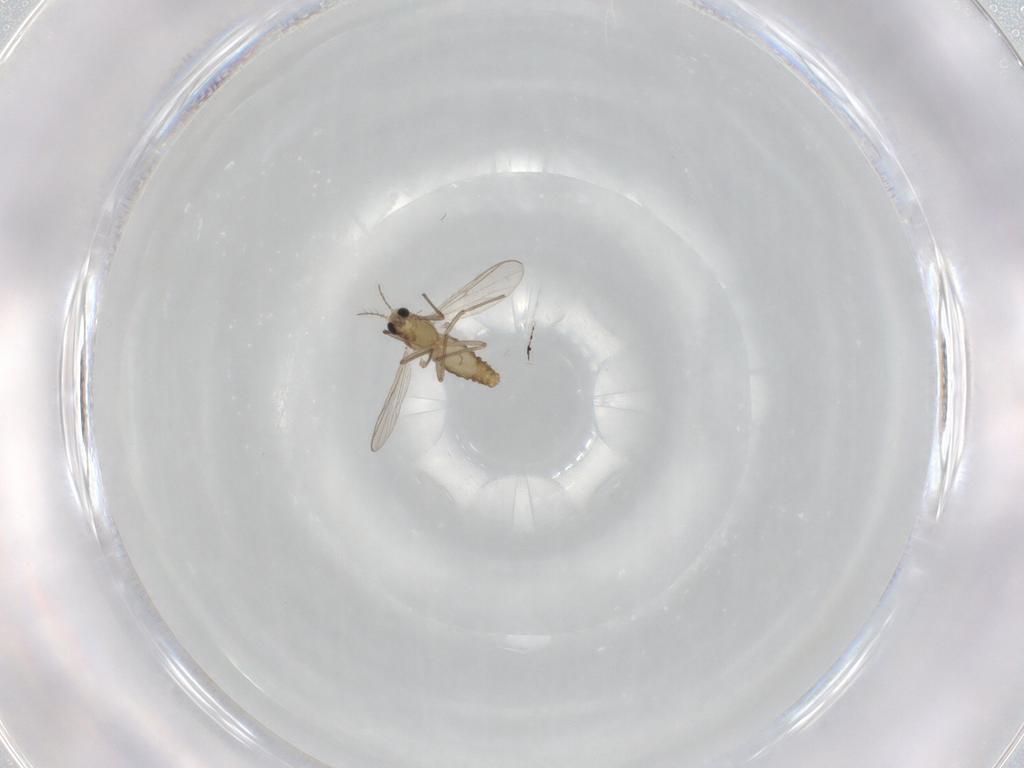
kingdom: Animalia
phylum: Arthropoda
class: Insecta
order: Diptera
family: Chironomidae
